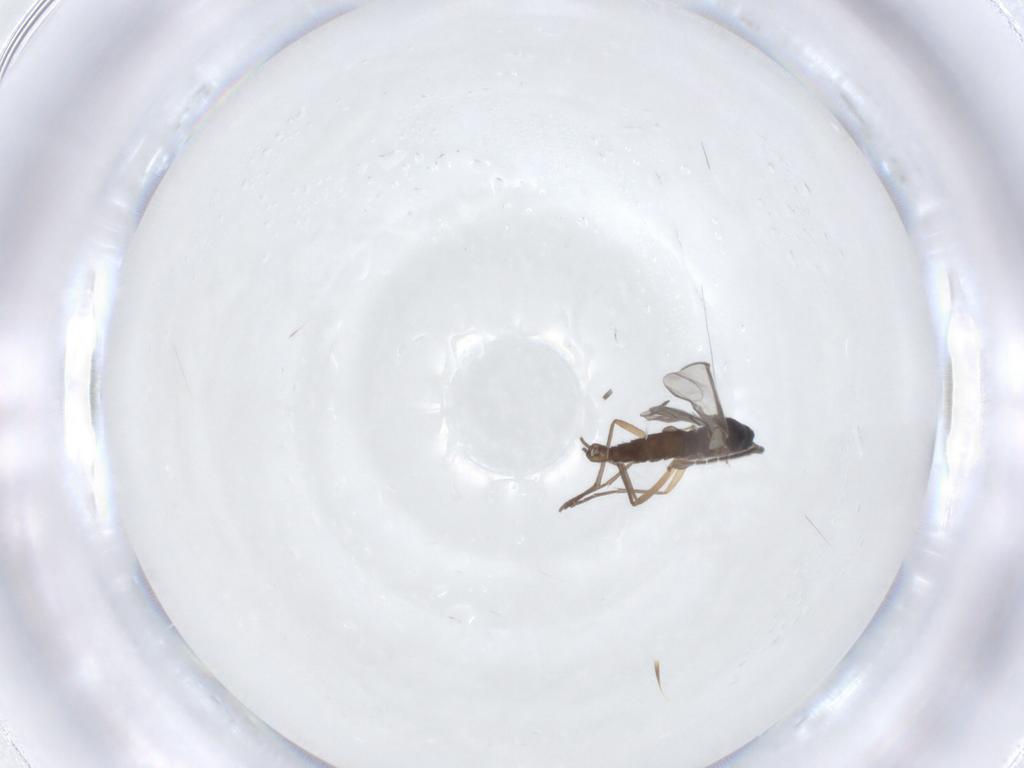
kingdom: Animalia
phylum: Arthropoda
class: Insecta
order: Diptera
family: Sciaridae
